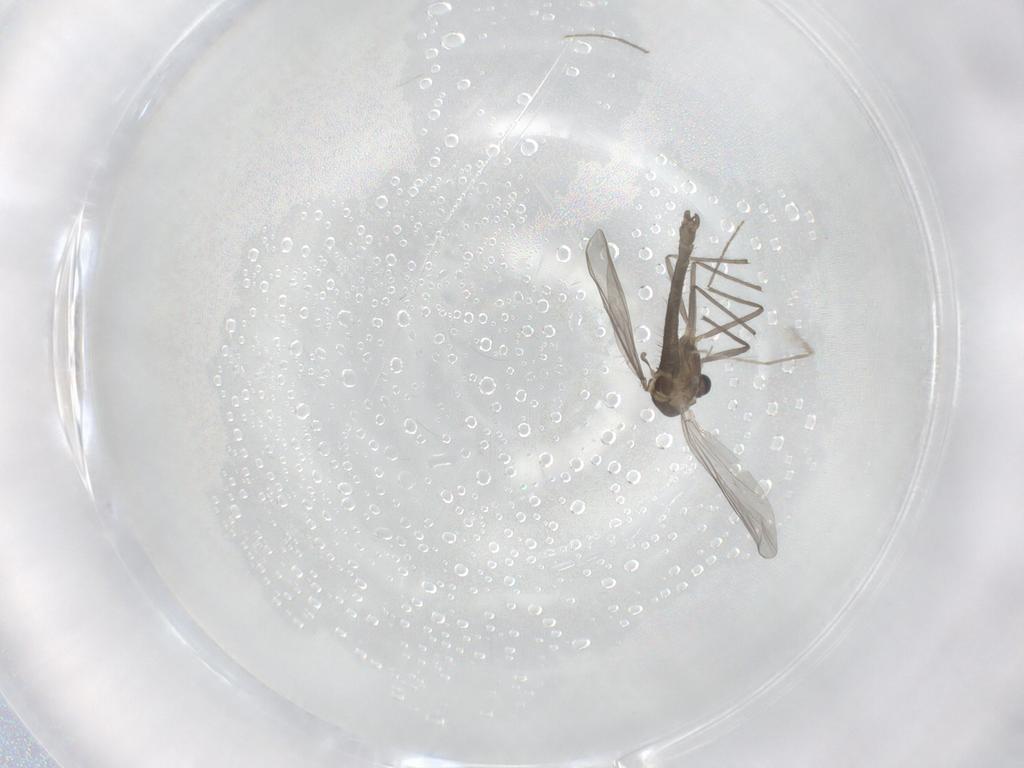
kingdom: Animalia
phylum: Arthropoda
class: Insecta
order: Diptera
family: Chironomidae
